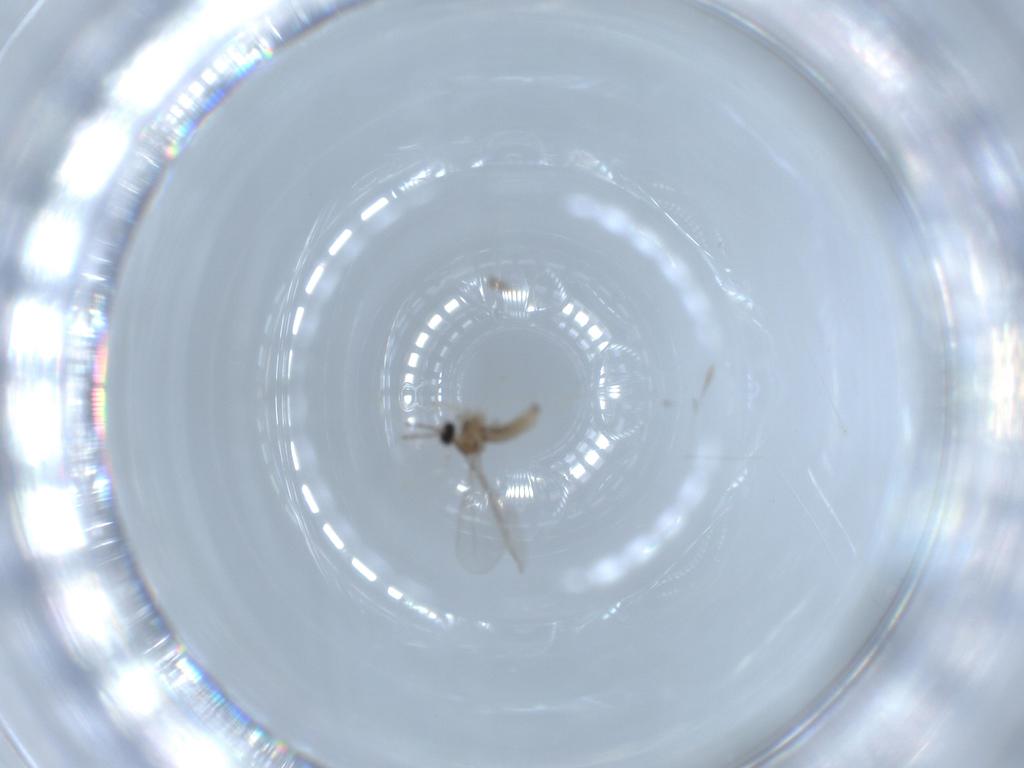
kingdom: Animalia
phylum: Arthropoda
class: Insecta
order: Diptera
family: Cecidomyiidae
